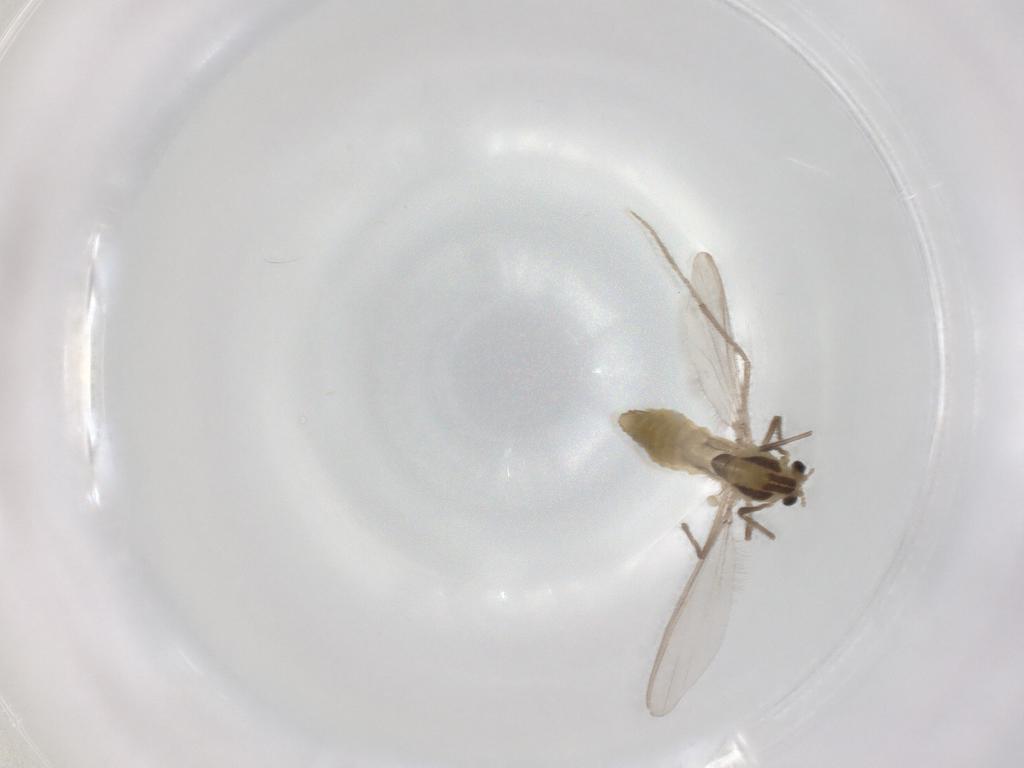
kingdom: Animalia
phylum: Arthropoda
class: Insecta
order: Diptera
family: Chironomidae
